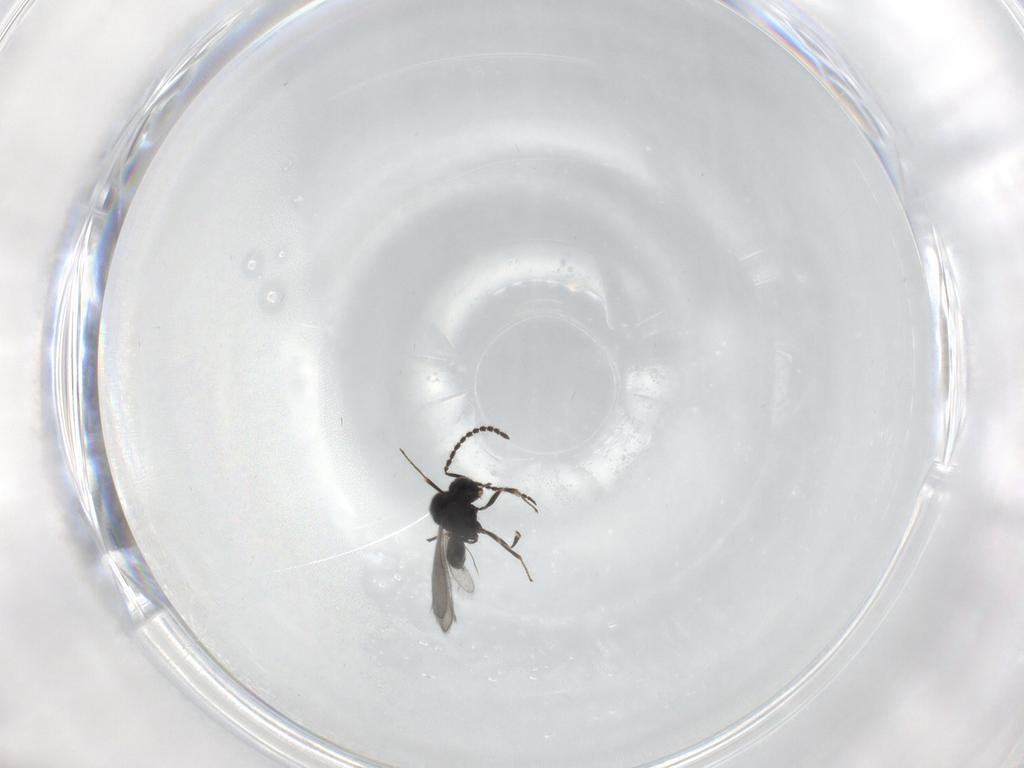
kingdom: Animalia
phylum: Arthropoda
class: Insecta
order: Hymenoptera
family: Scelionidae
